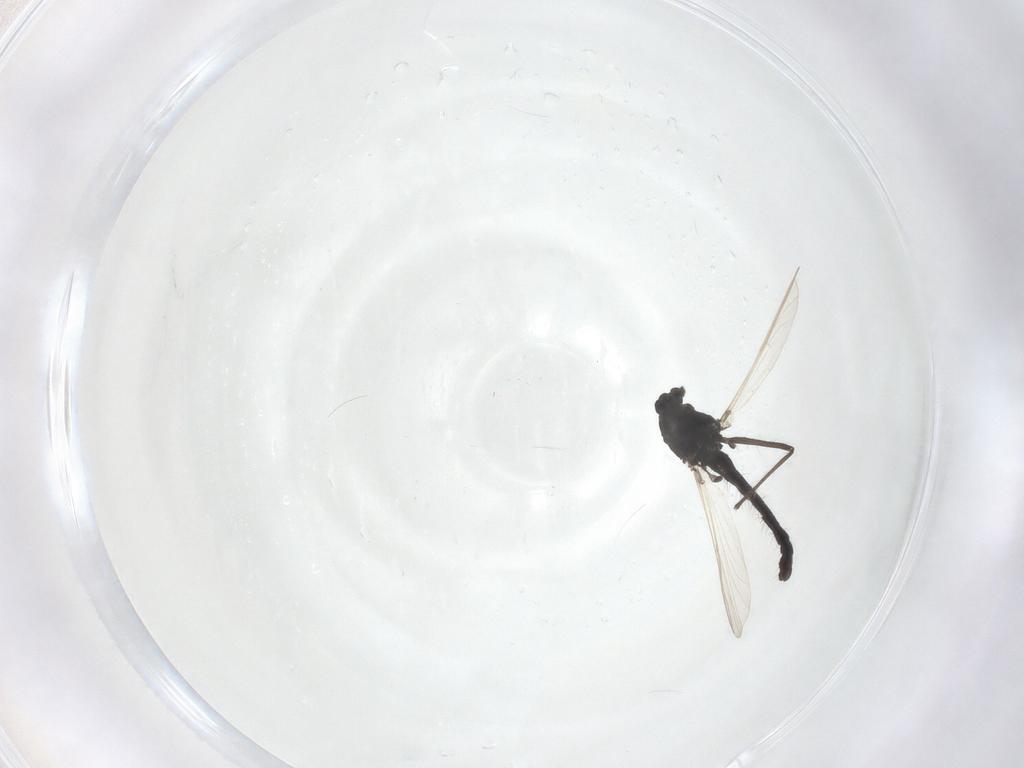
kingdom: Animalia
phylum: Arthropoda
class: Insecta
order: Diptera
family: Chironomidae
